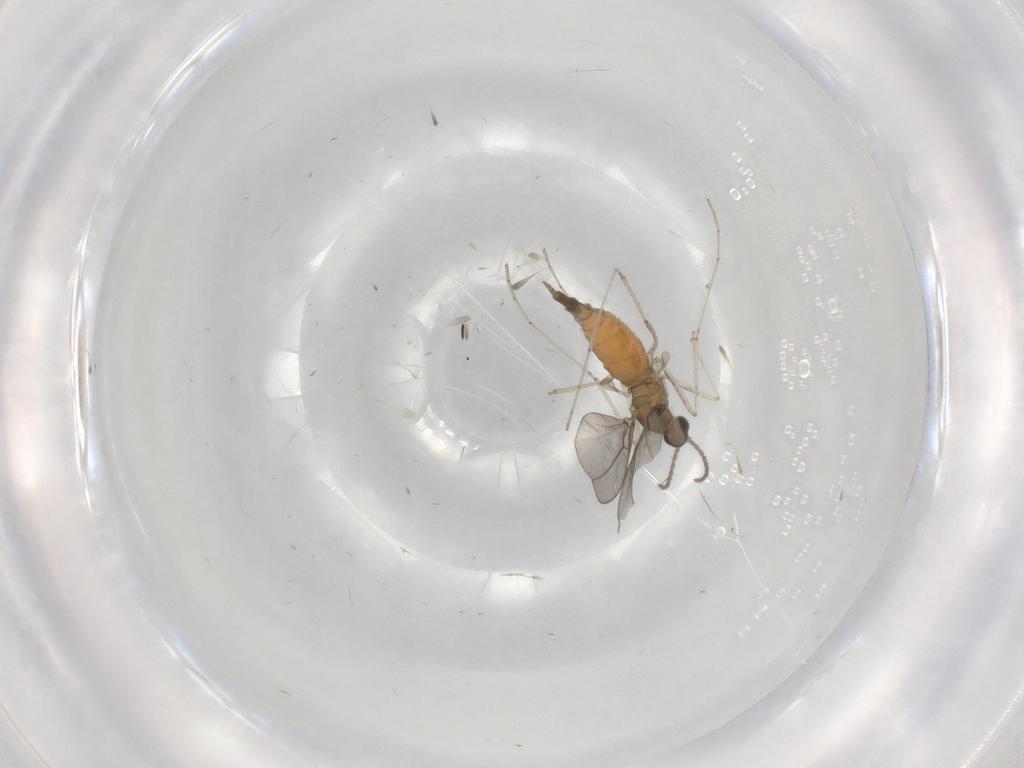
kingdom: Animalia
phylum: Arthropoda
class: Insecta
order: Diptera
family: Cecidomyiidae
